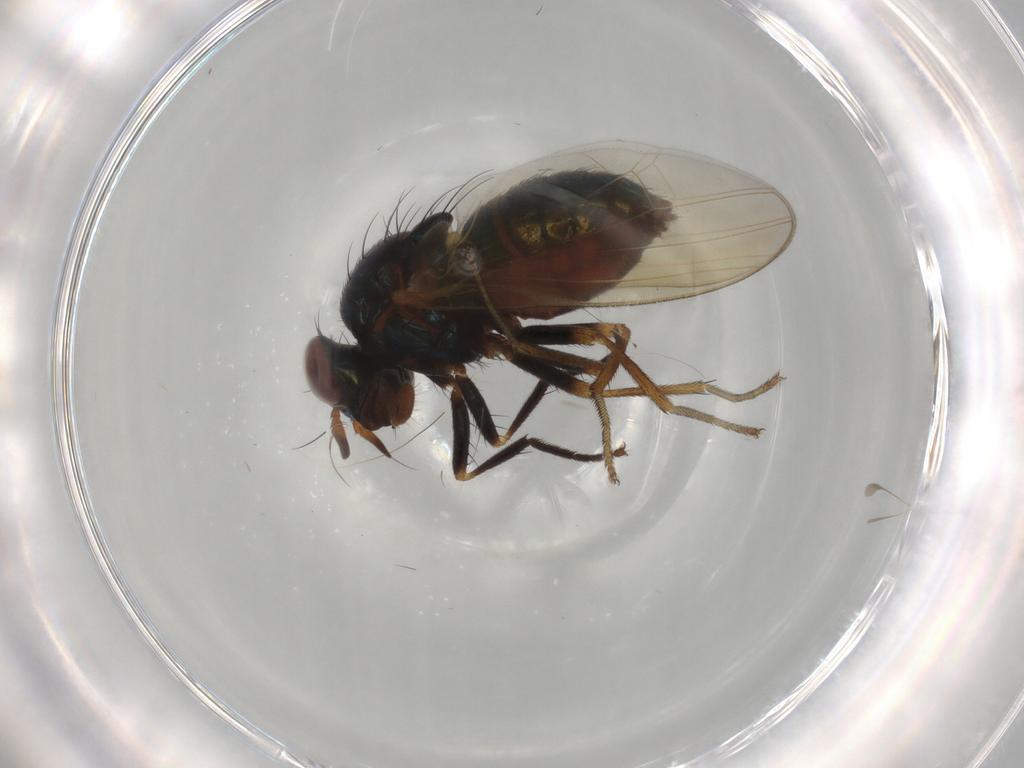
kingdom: Animalia
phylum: Arthropoda
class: Insecta
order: Diptera
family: Lauxaniidae
